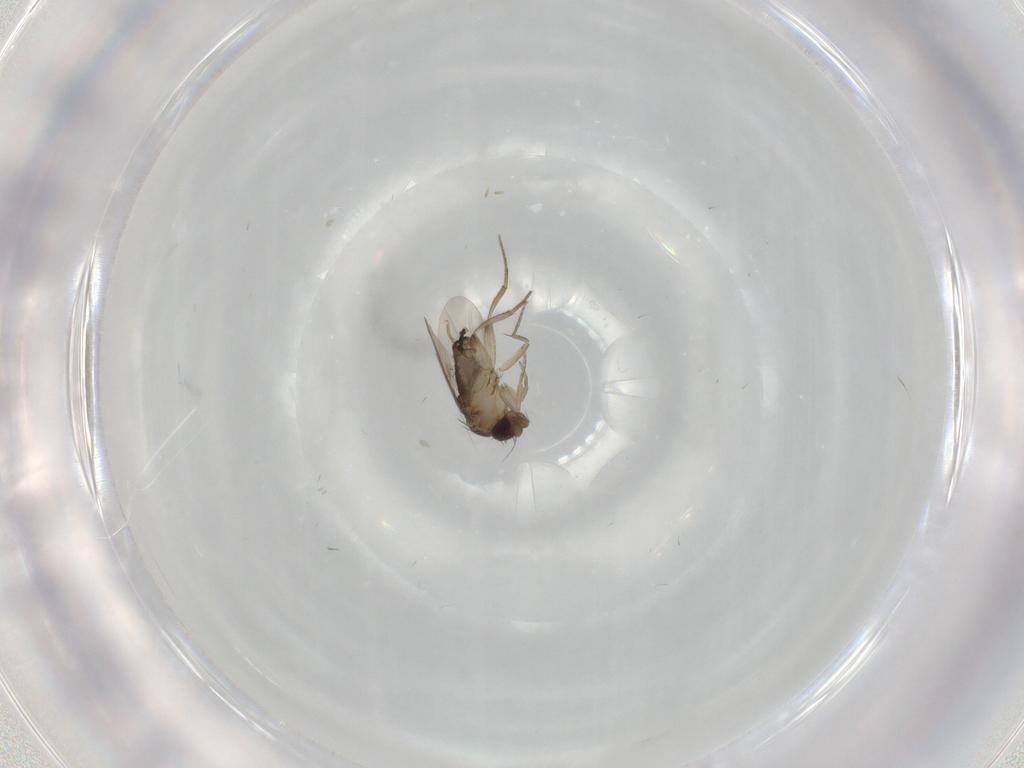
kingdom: Animalia
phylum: Arthropoda
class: Insecta
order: Diptera
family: Phoridae
